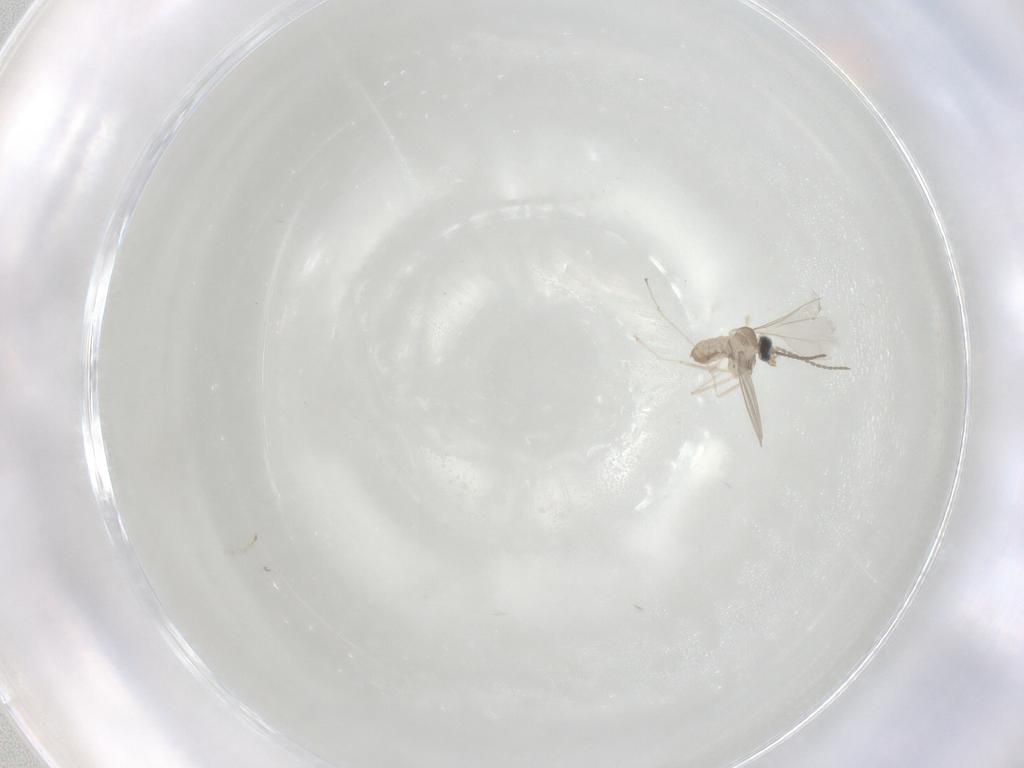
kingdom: Animalia
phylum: Arthropoda
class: Insecta
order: Diptera
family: Cecidomyiidae
